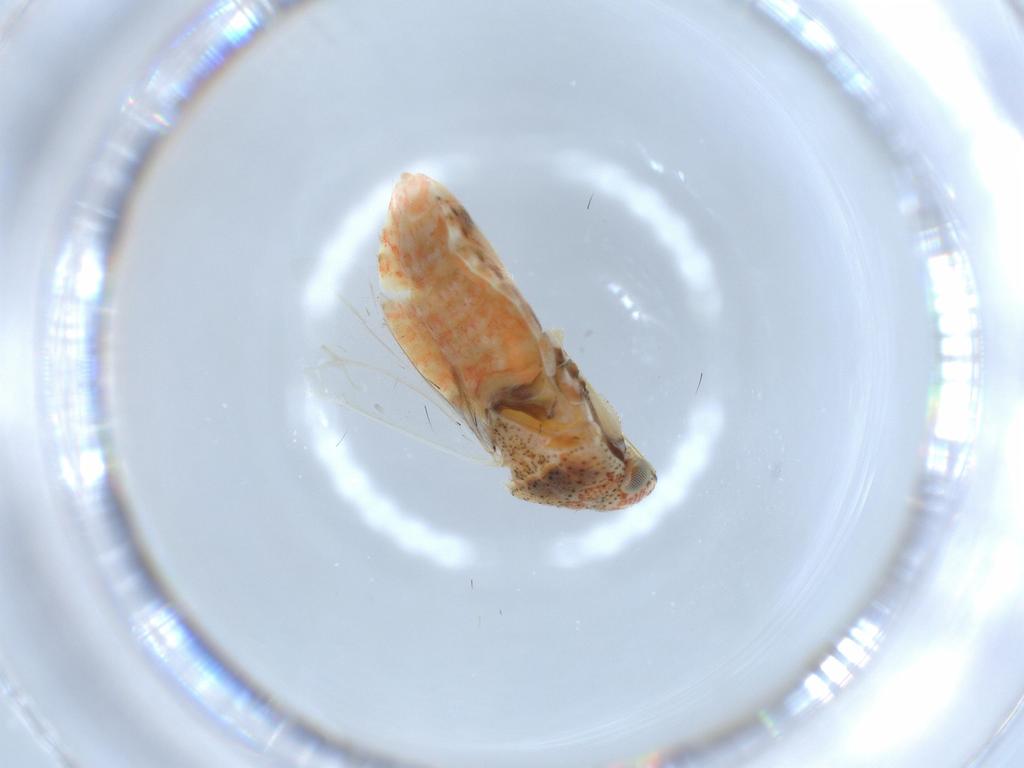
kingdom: Animalia
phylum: Arthropoda
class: Insecta
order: Hemiptera
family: Miridae
